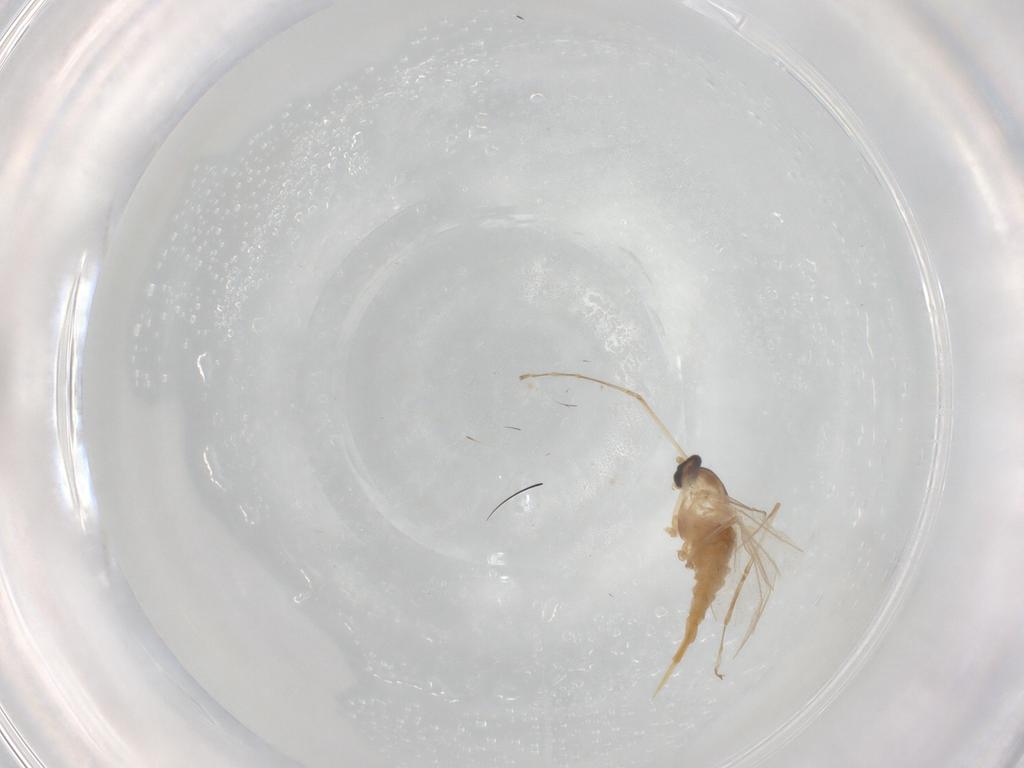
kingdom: Animalia
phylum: Arthropoda
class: Insecta
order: Diptera
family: Cecidomyiidae
